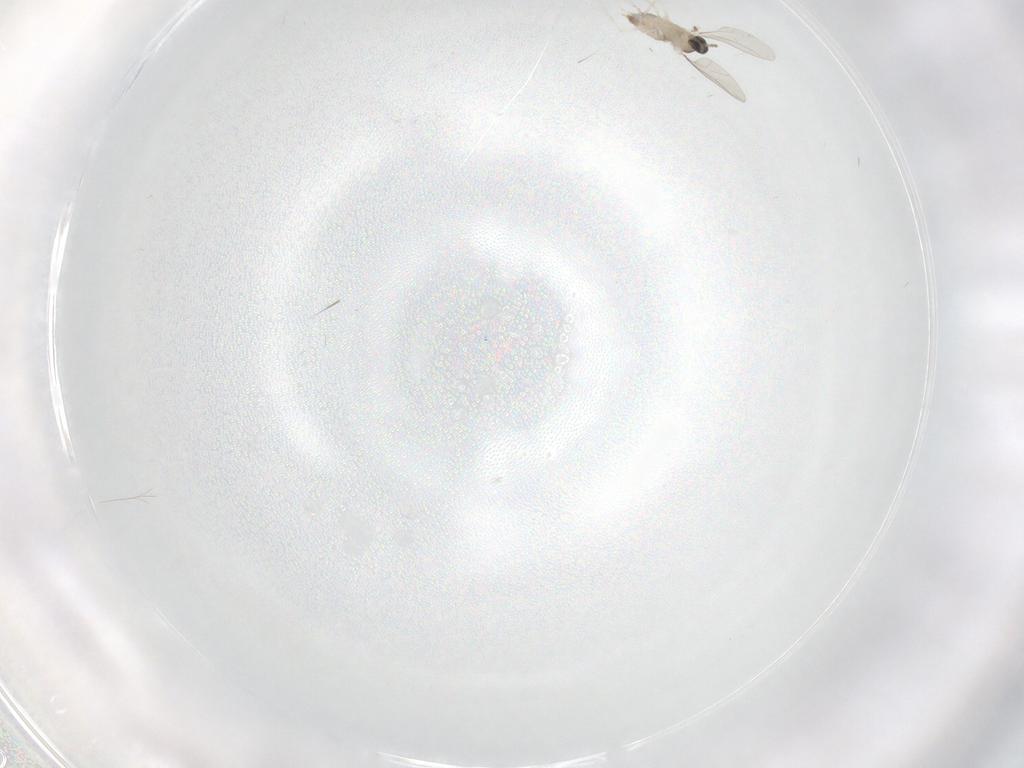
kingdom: Animalia
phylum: Arthropoda
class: Insecta
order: Diptera
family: Cecidomyiidae
